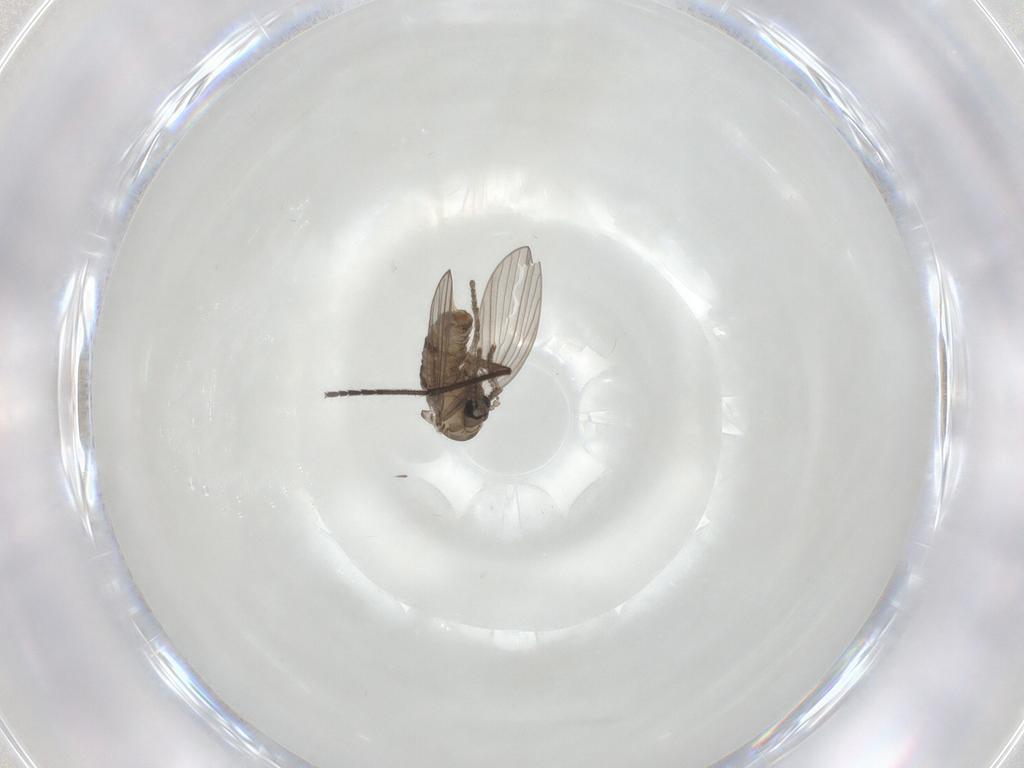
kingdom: Animalia
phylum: Arthropoda
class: Insecta
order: Diptera
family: Psychodidae
